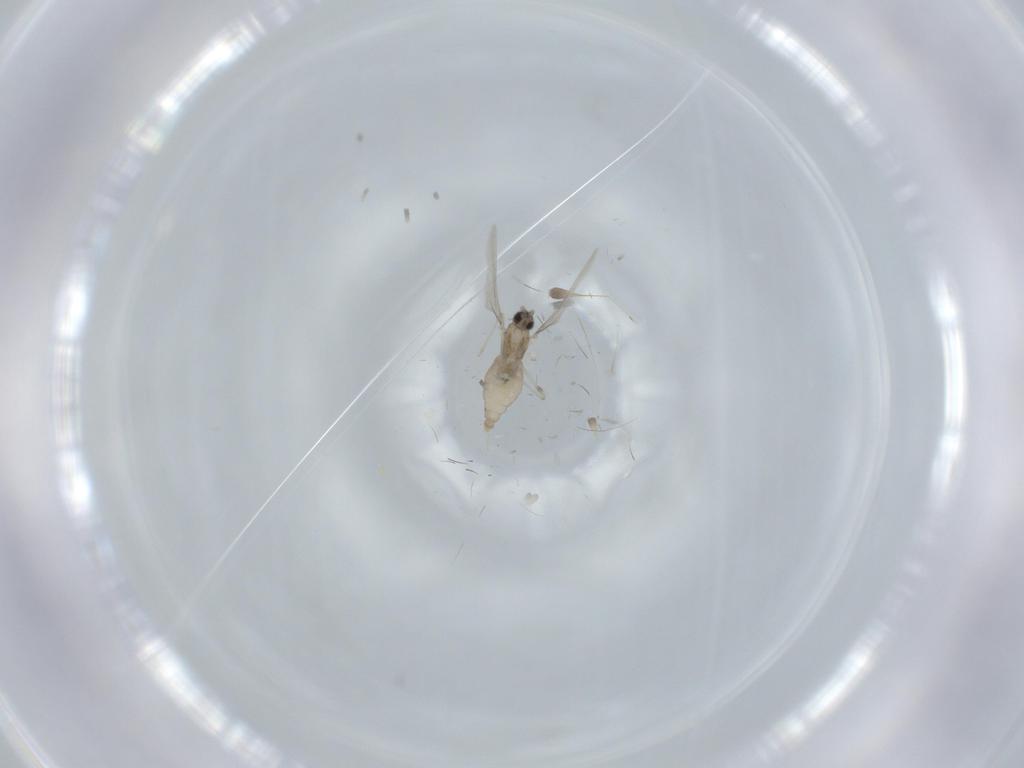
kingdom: Animalia
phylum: Arthropoda
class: Insecta
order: Diptera
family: Cecidomyiidae
